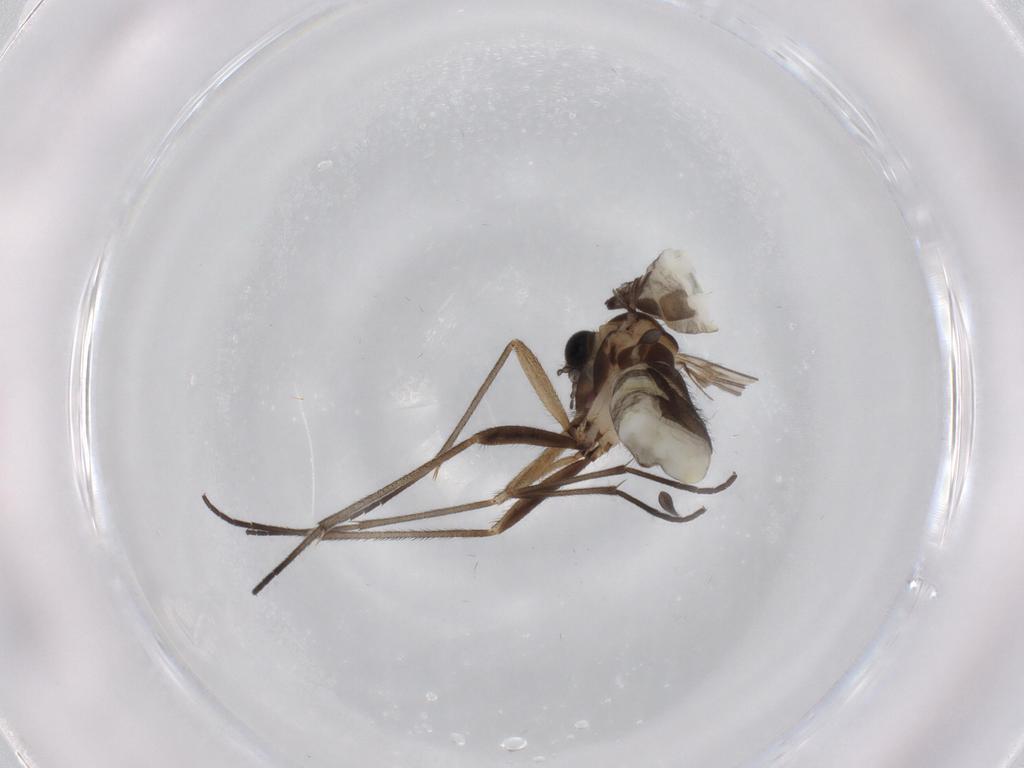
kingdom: Animalia
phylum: Arthropoda
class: Insecta
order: Diptera
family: Sciaridae
